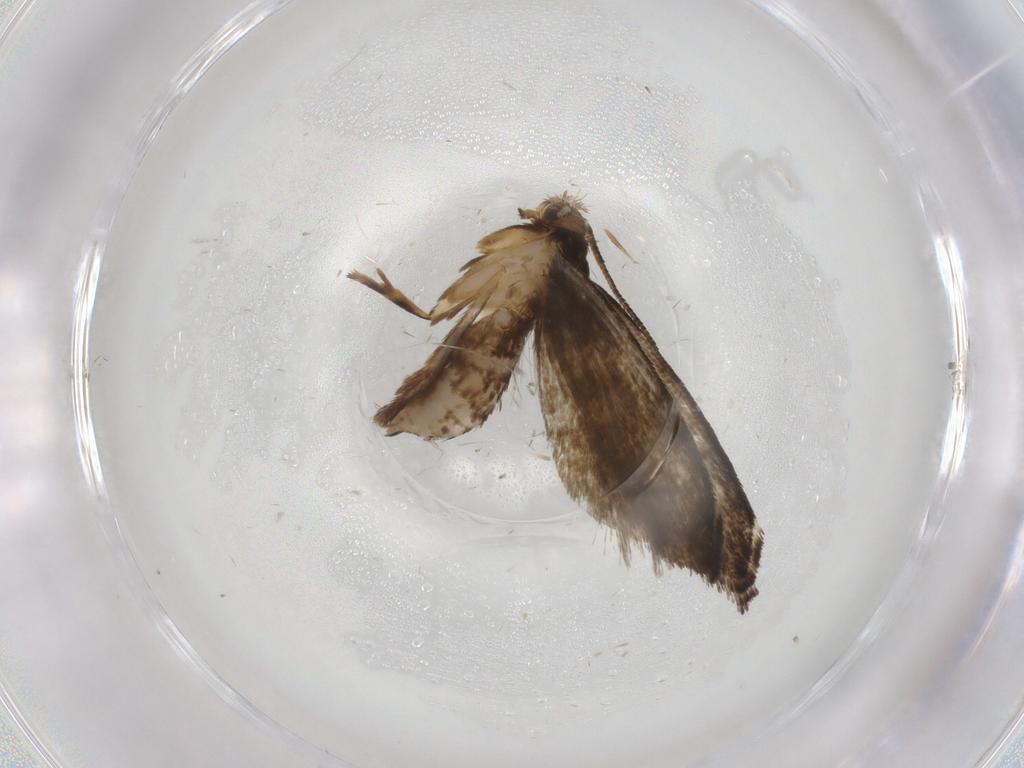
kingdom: Animalia
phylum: Arthropoda
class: Insecta
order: Lepidoptera
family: Crambidae
